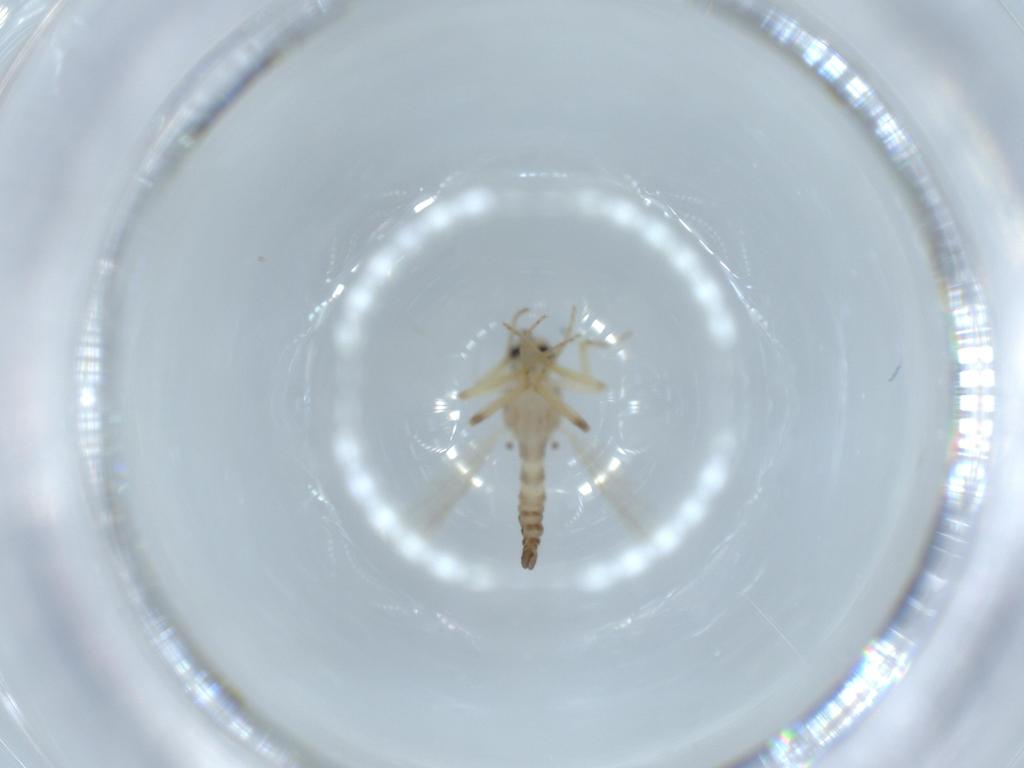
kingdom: Animalia
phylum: Arthropoda
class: Insecta
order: Diptera
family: Ceratopogonidae
